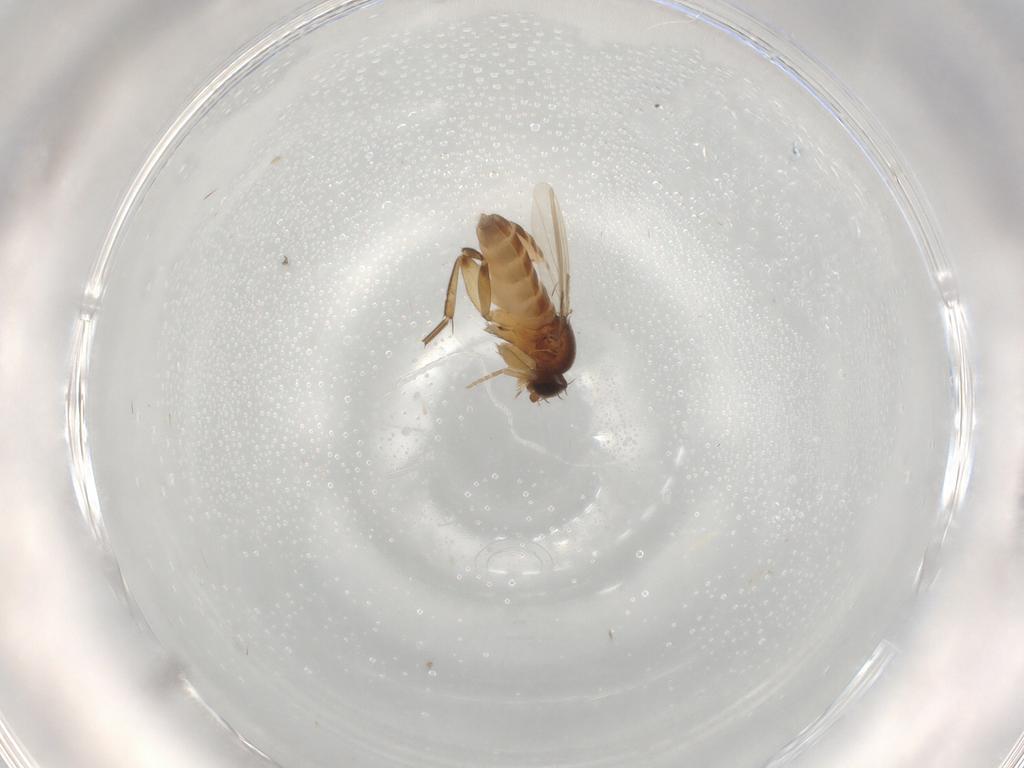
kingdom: Animalia
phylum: Arthropoda
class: Insecta
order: Diptera
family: Phoridae
